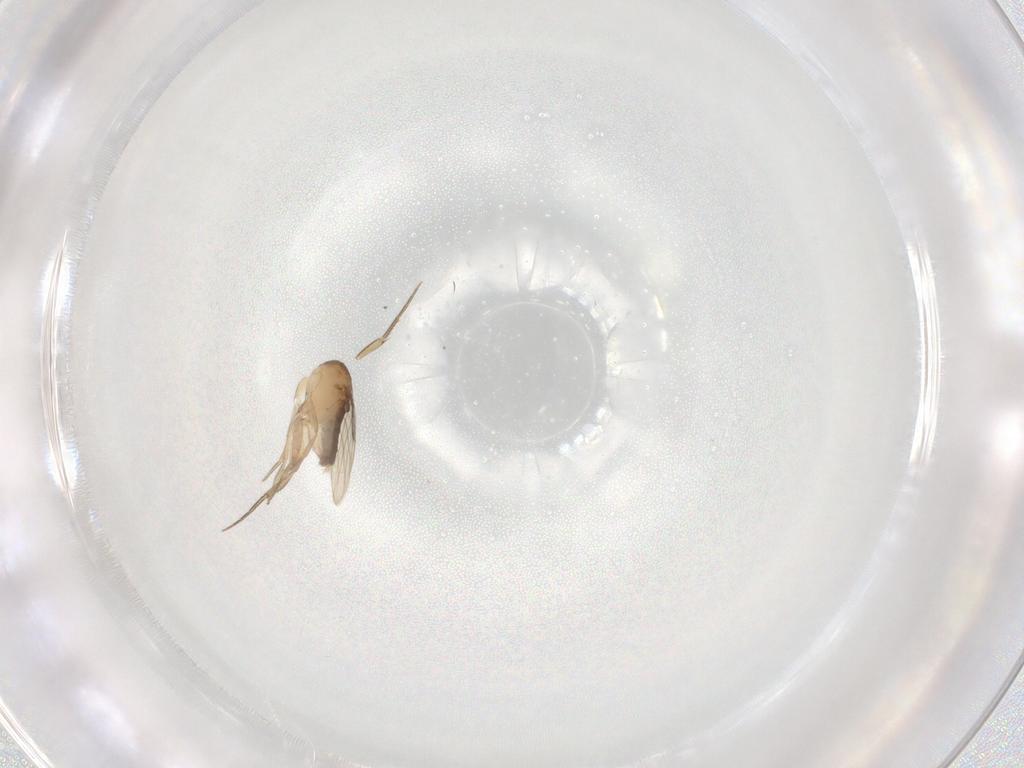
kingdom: Animalia
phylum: Arthropoda
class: Insecta
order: Diptera
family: Phoridae
